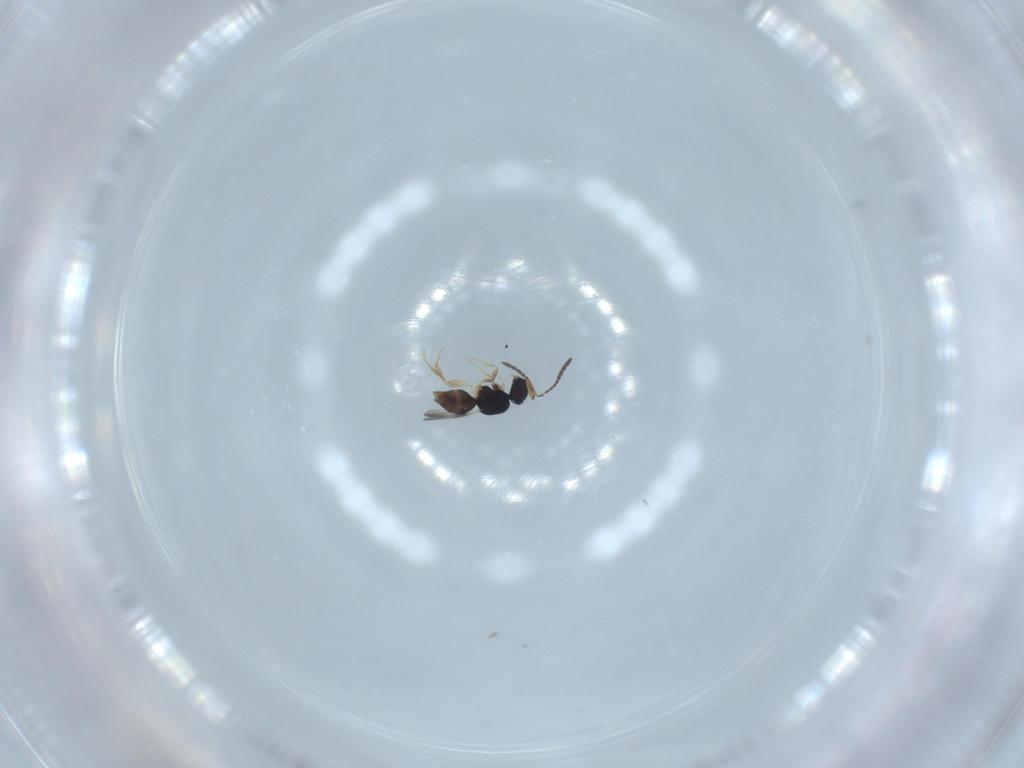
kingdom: Animalia
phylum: Arthropoda
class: Insecta
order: Hymenoptera
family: Ceraphronidae
